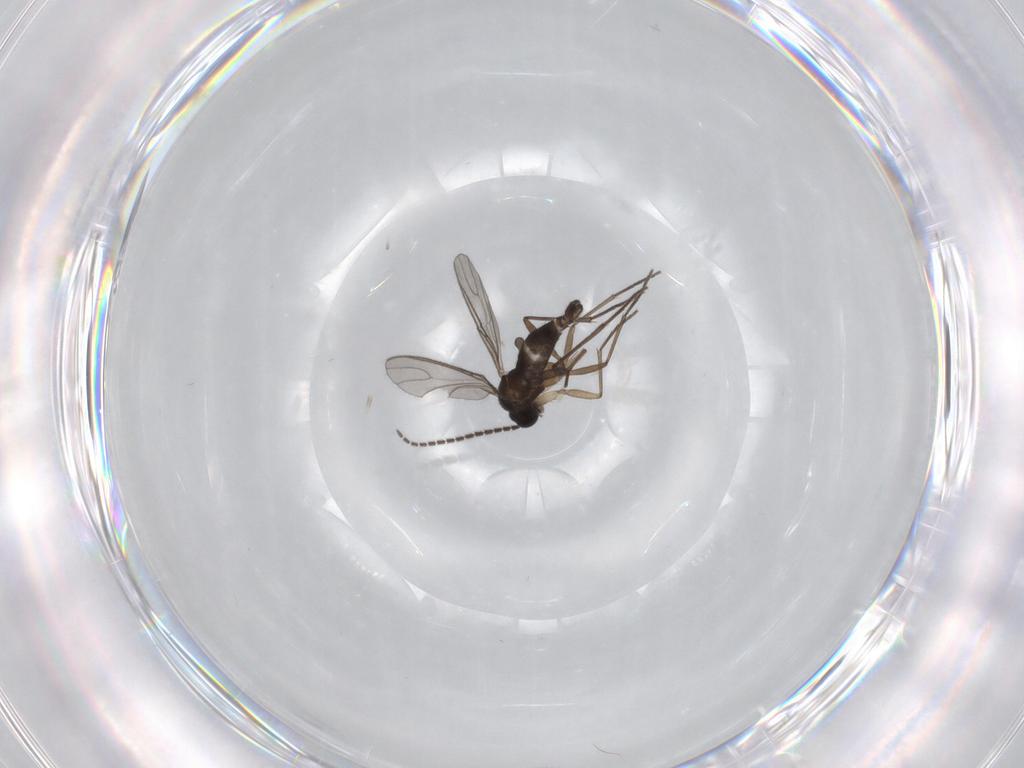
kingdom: Animalia
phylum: Arthropoda
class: Insecta
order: Diptera
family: Sciaridae
